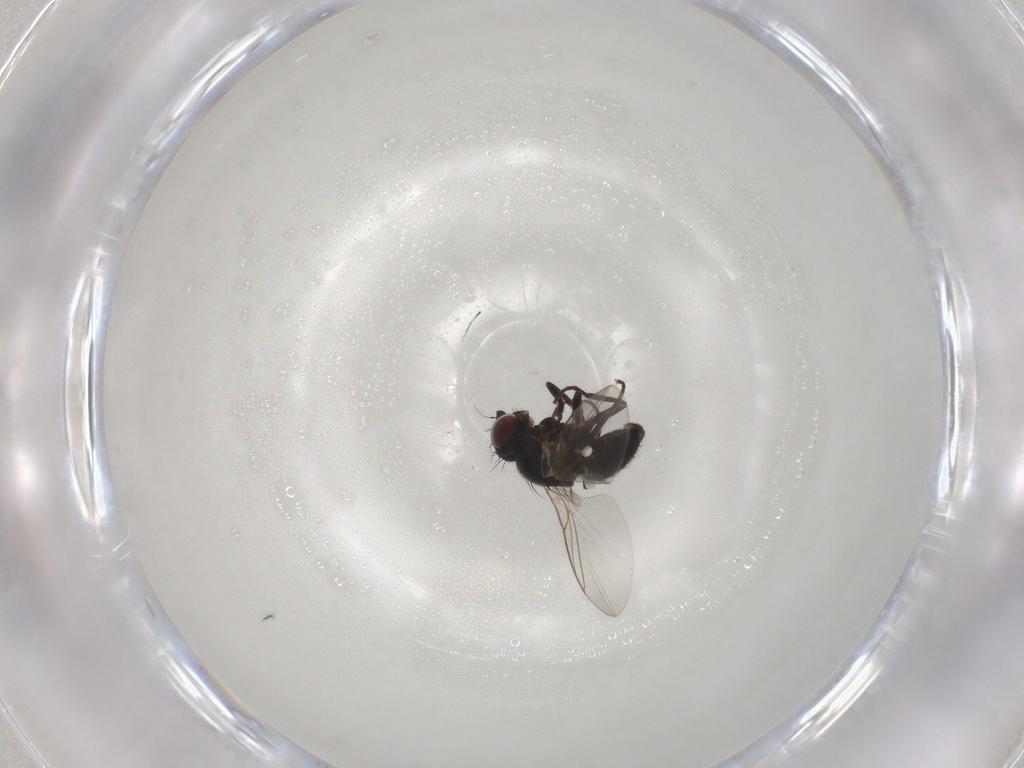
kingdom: Animalia
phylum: Arthropoda
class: Insecta
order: Diptera
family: Agromyzidae
